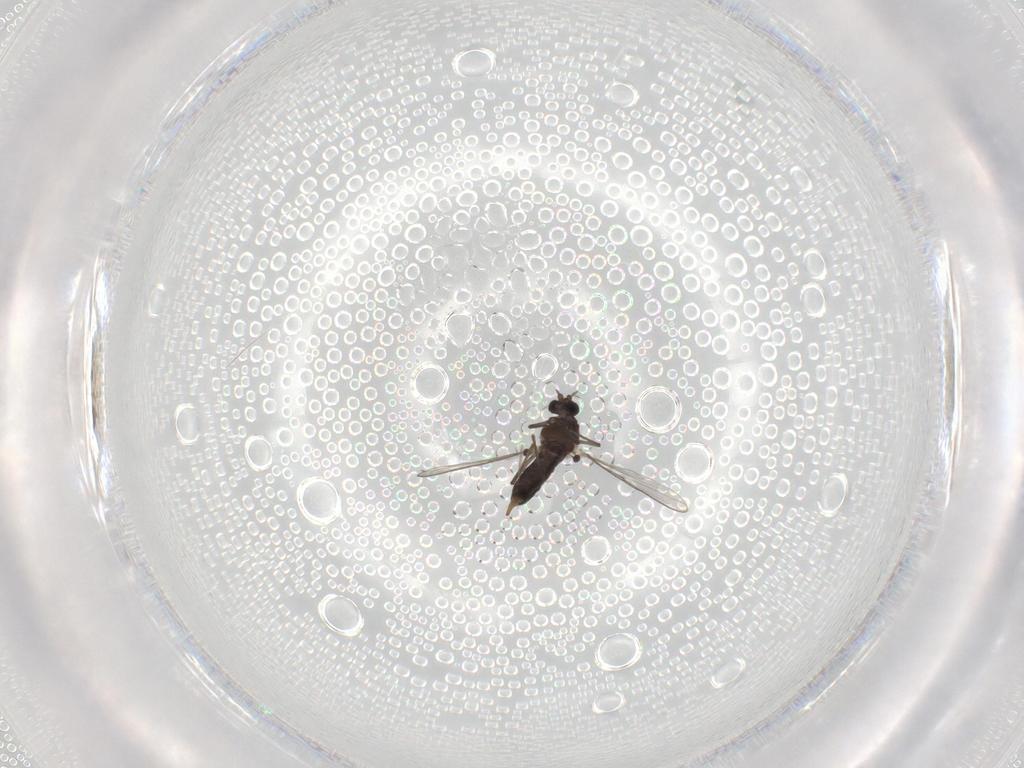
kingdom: Animalia
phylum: Arthropoda
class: Insecta
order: Diptera
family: Chironomidae
